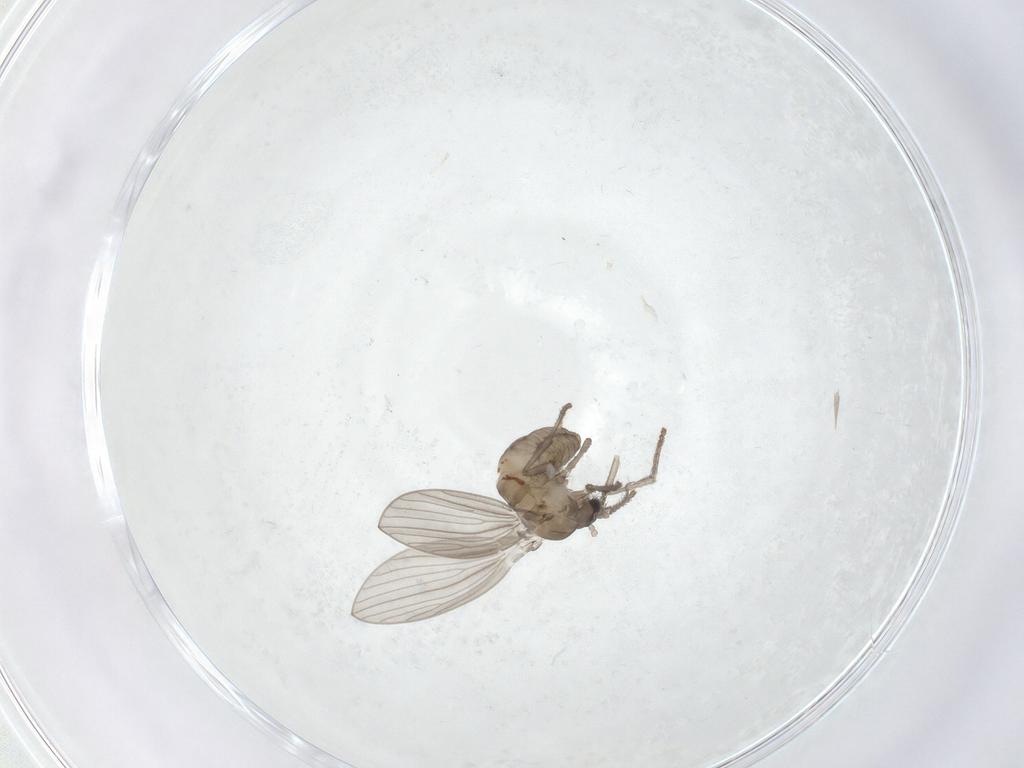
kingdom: Animalia
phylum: Arthropoda
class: Insecta
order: Diptera
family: Psychodidae
